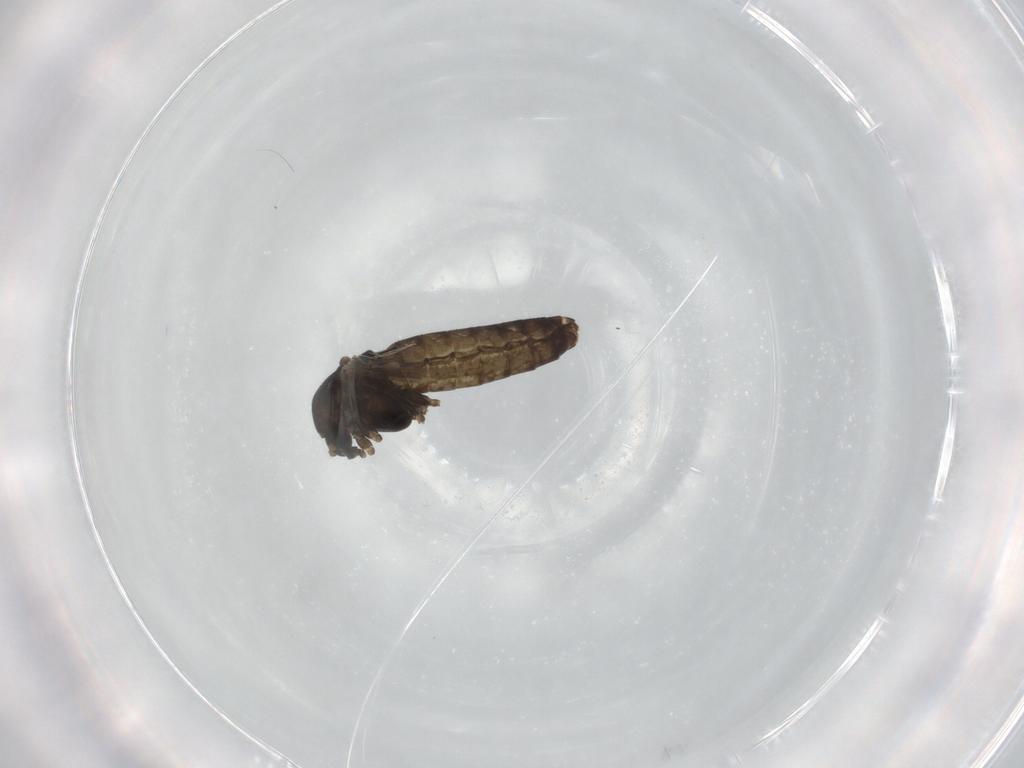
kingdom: Animalia
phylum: Arthropoda
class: Insecta
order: Diptera
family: Chironomidae
